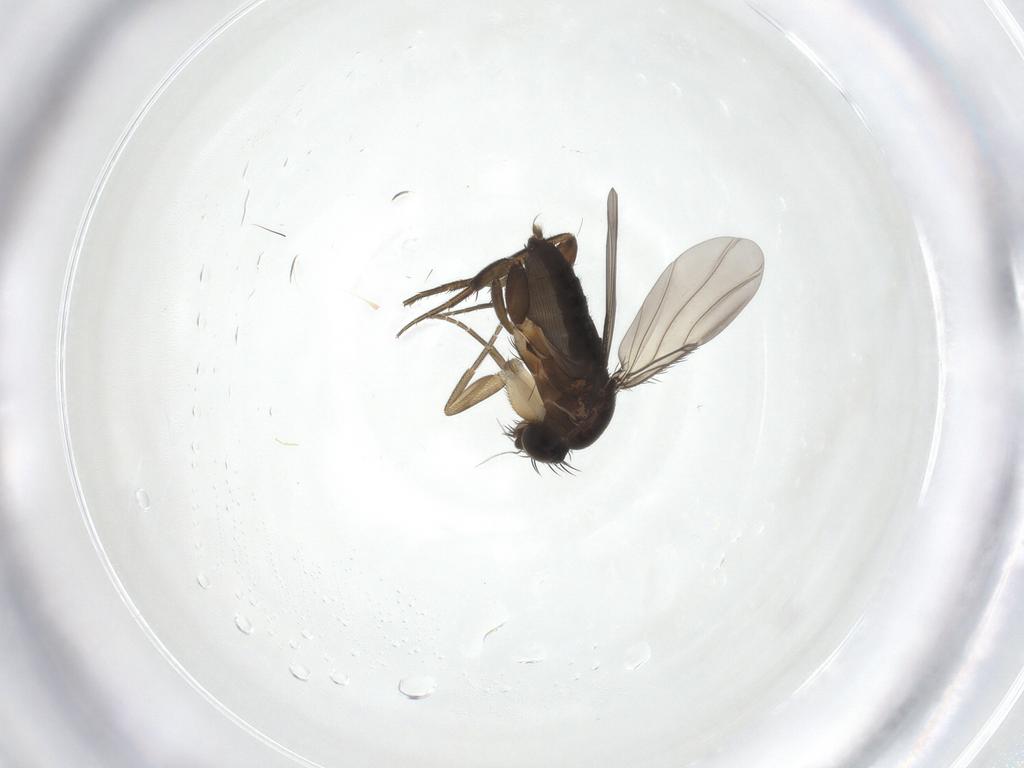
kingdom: Animalia
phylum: Arthropoda
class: Insecta
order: Diptera
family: Phoridae
